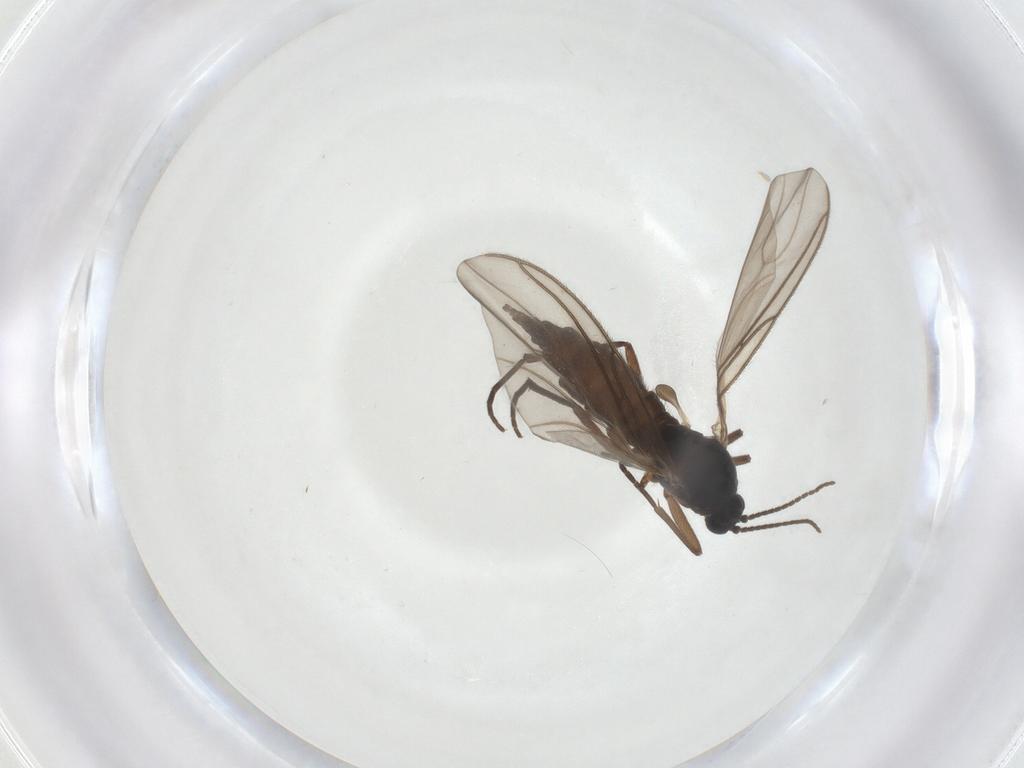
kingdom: Animalia
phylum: Arthropoda
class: Insecta
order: Diptera
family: Sciaridae
